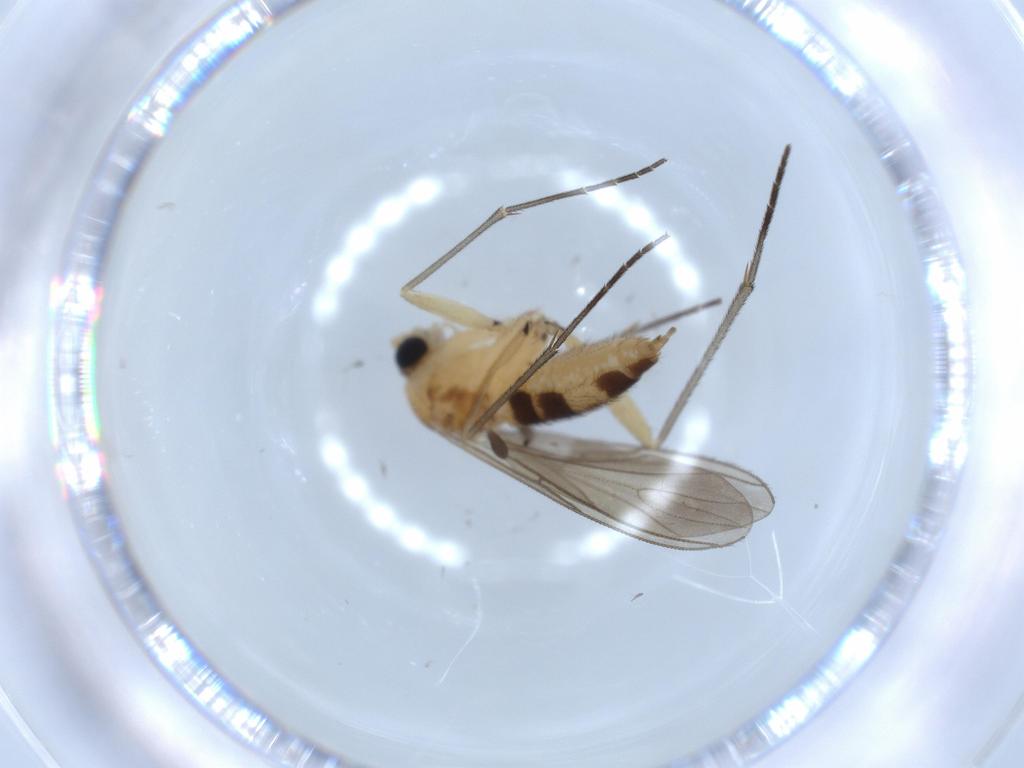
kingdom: Animalia
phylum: Arthropoda
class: Insecta
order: Diptera
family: Sciaridae
